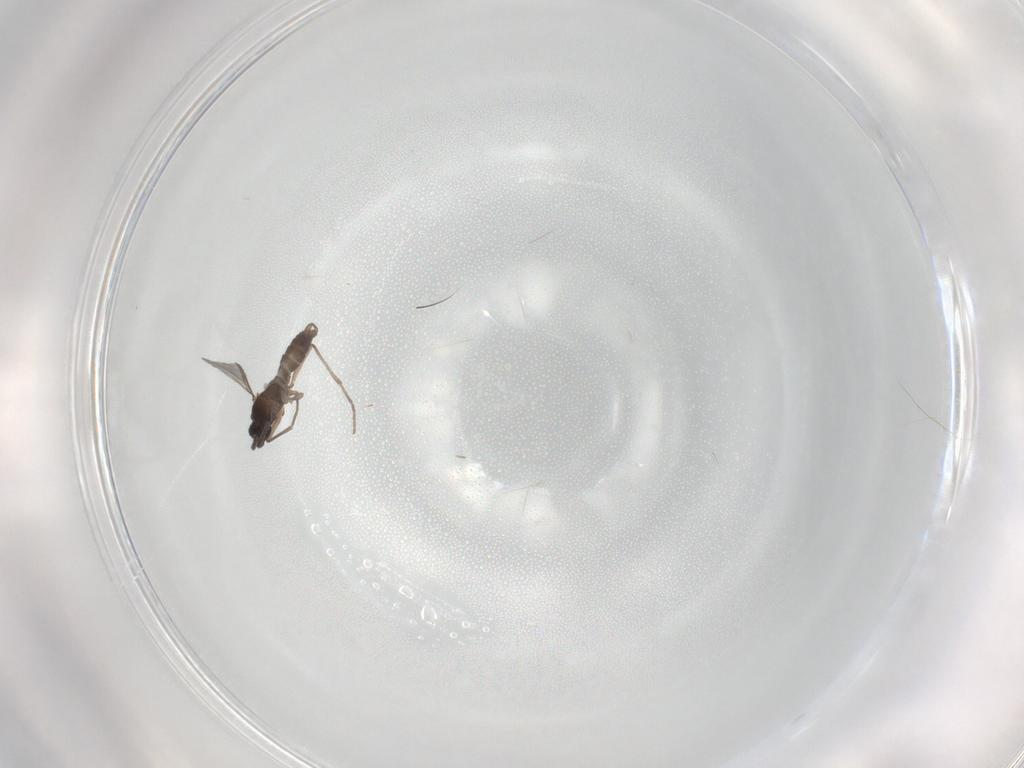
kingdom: Animalia
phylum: Arthropoda
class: Insecta
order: Diptera
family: Sciaridae
